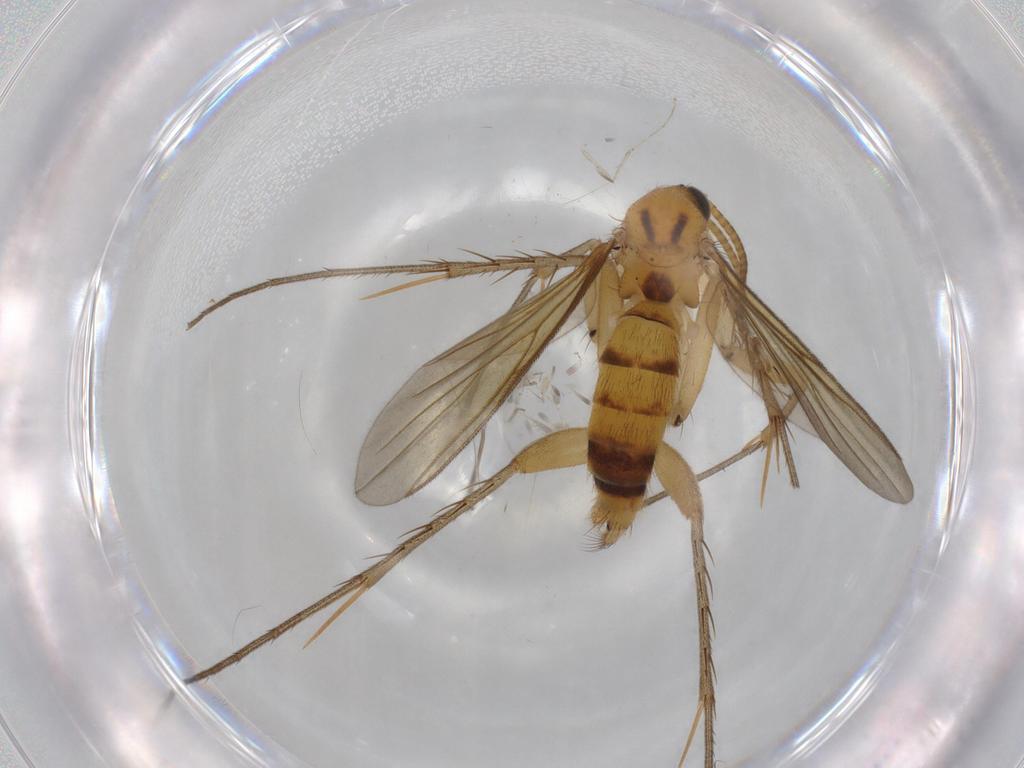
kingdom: Animalia
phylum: Arthropoda
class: Insecta
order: Diptera
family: Mycetophilidae
